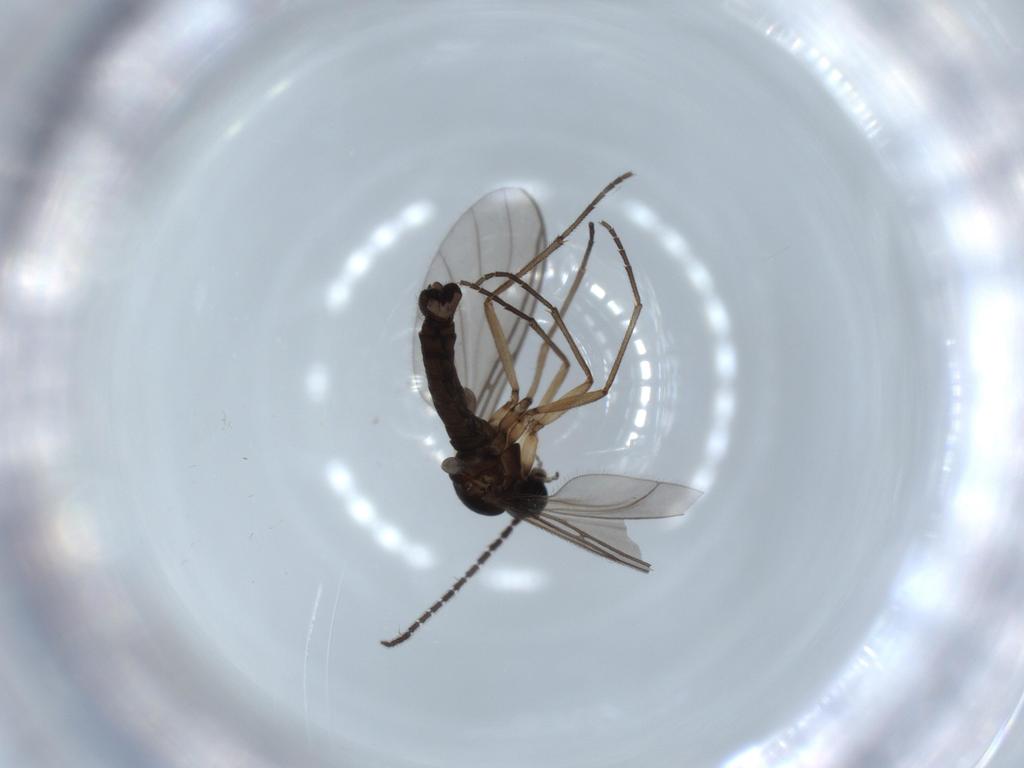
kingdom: Animalia
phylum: Arthropoda
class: Insecta
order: Diptera
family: Sciaridae
